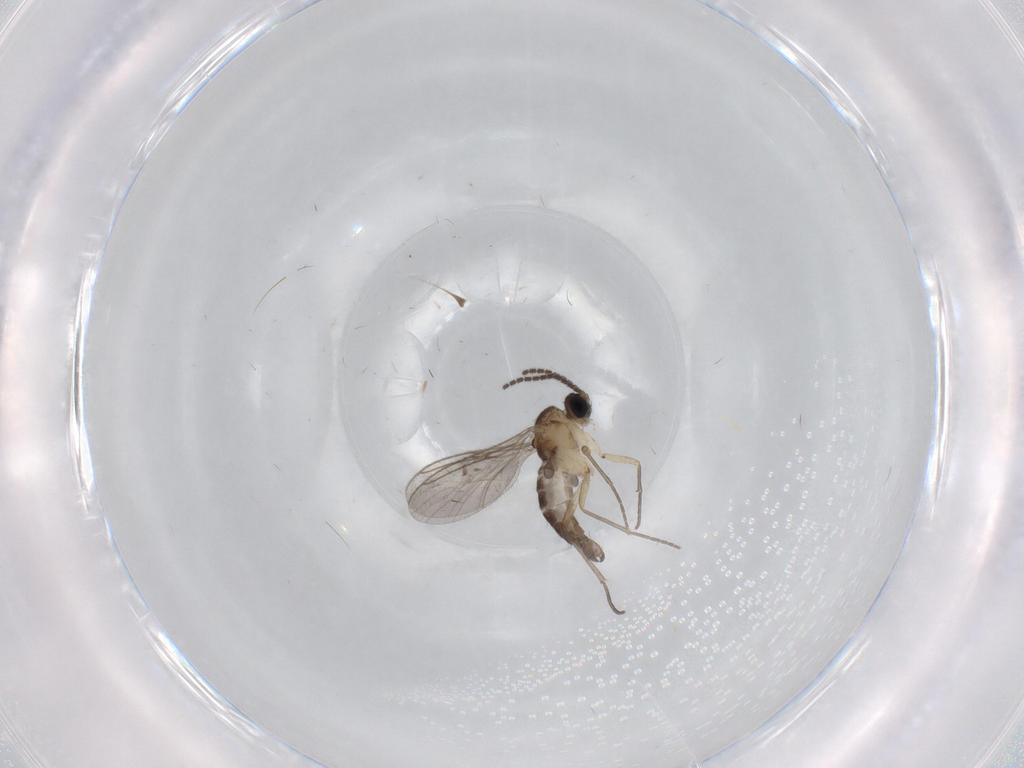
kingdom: Animalia
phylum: Arthropoda
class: Insecta
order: Diptera
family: Sciaridae
